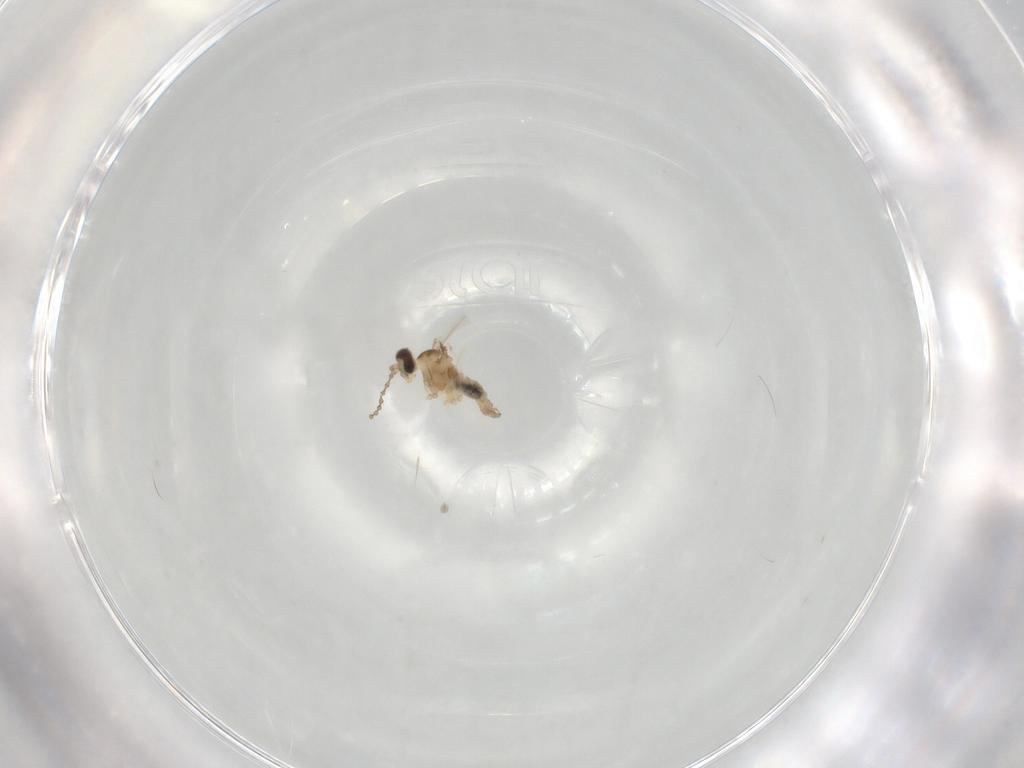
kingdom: Animalia
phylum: Arthropoda
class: Insecta
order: Diptera
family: Cecidomyiidae
